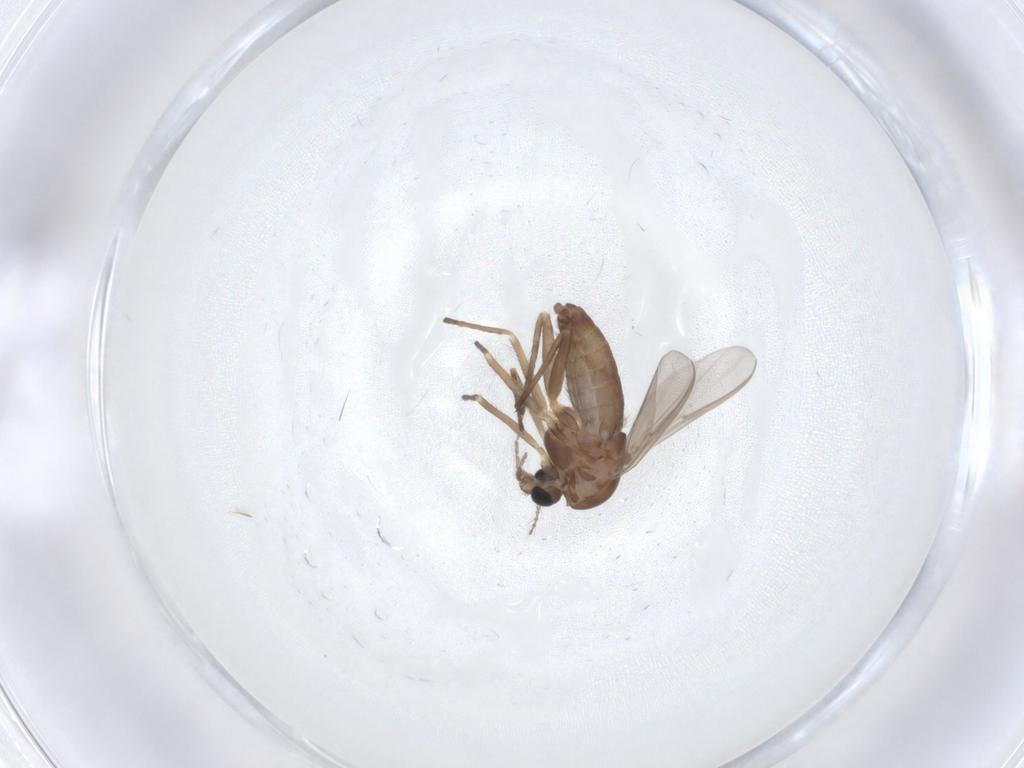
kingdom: Animalia
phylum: Arthropoda
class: Insecta
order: Diptera
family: Chironomidae
